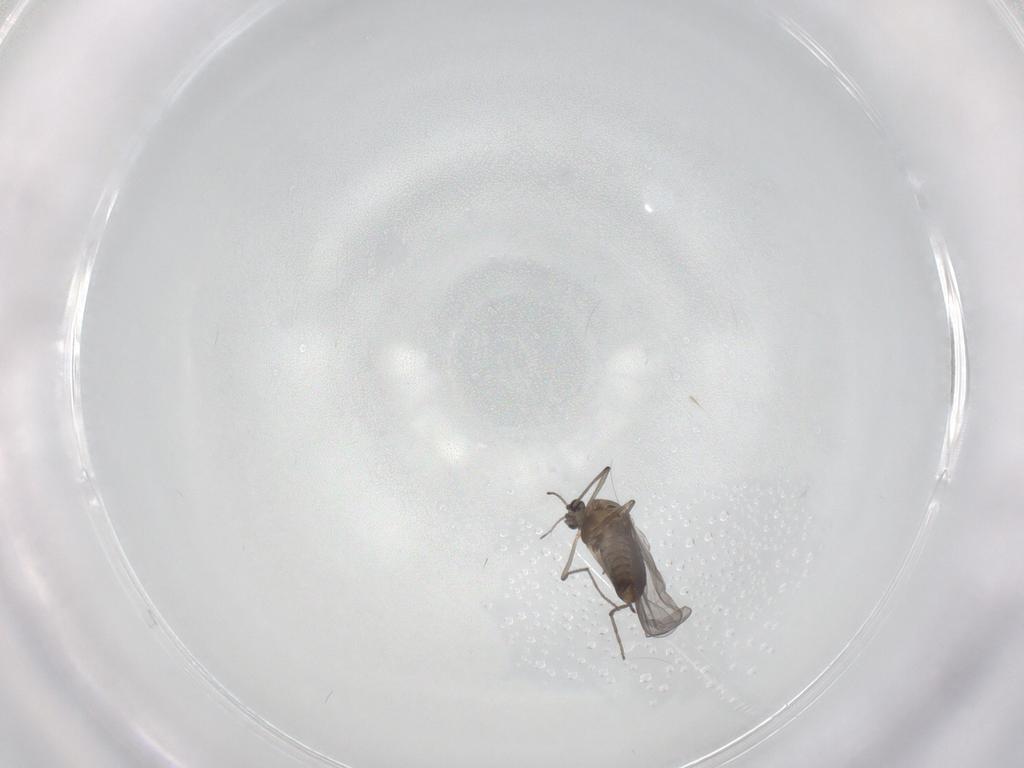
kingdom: Animalia
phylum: Arthropoda
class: Insecta
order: Diptera
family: Chironomidae
